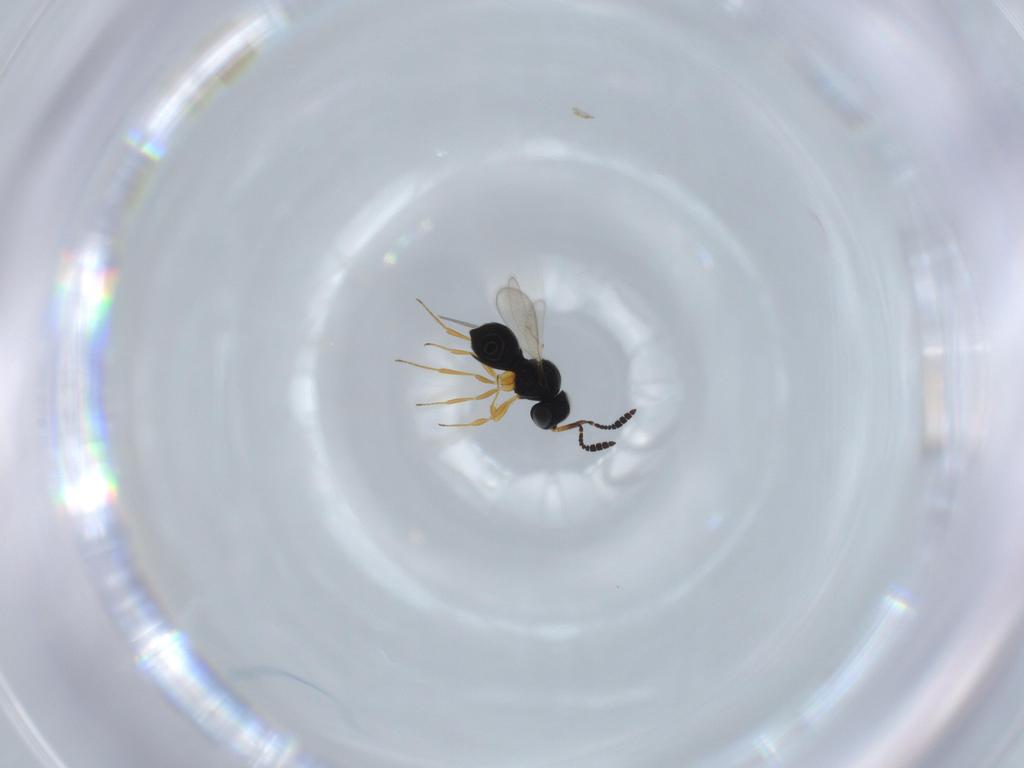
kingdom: Animalia
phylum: Arthropoda
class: Insecta
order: Hymenoptera
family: Scelionidae
